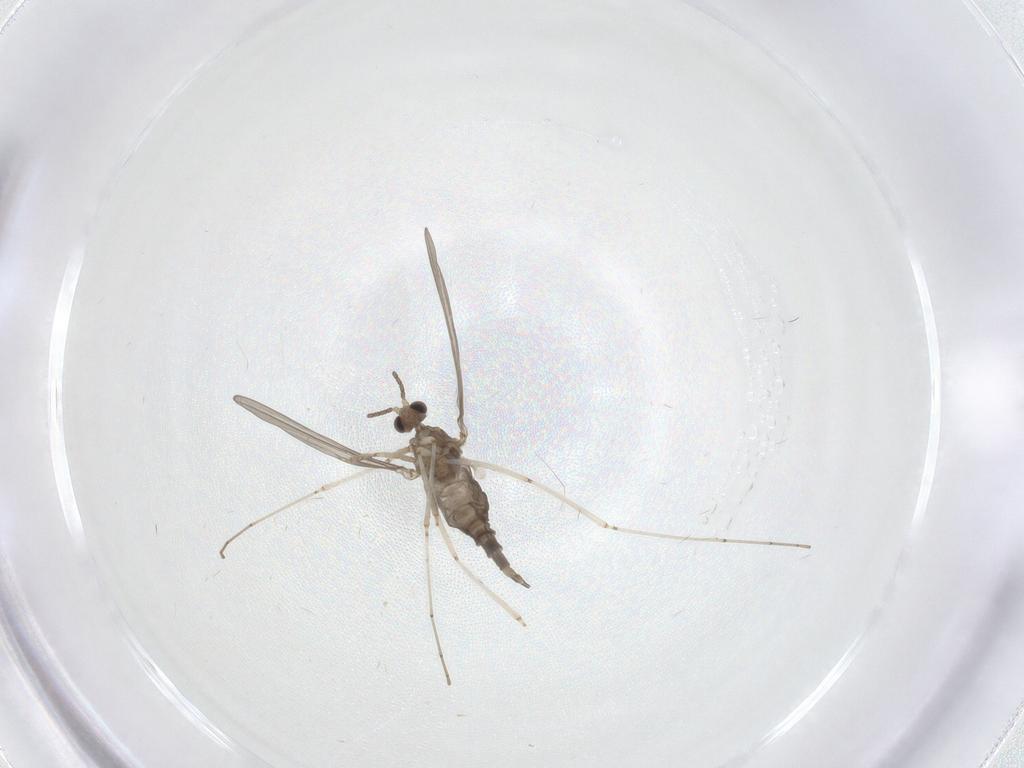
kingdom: Animalia
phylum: Arthropoda
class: Insecta
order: Diptera
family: Cecidomyiidae
